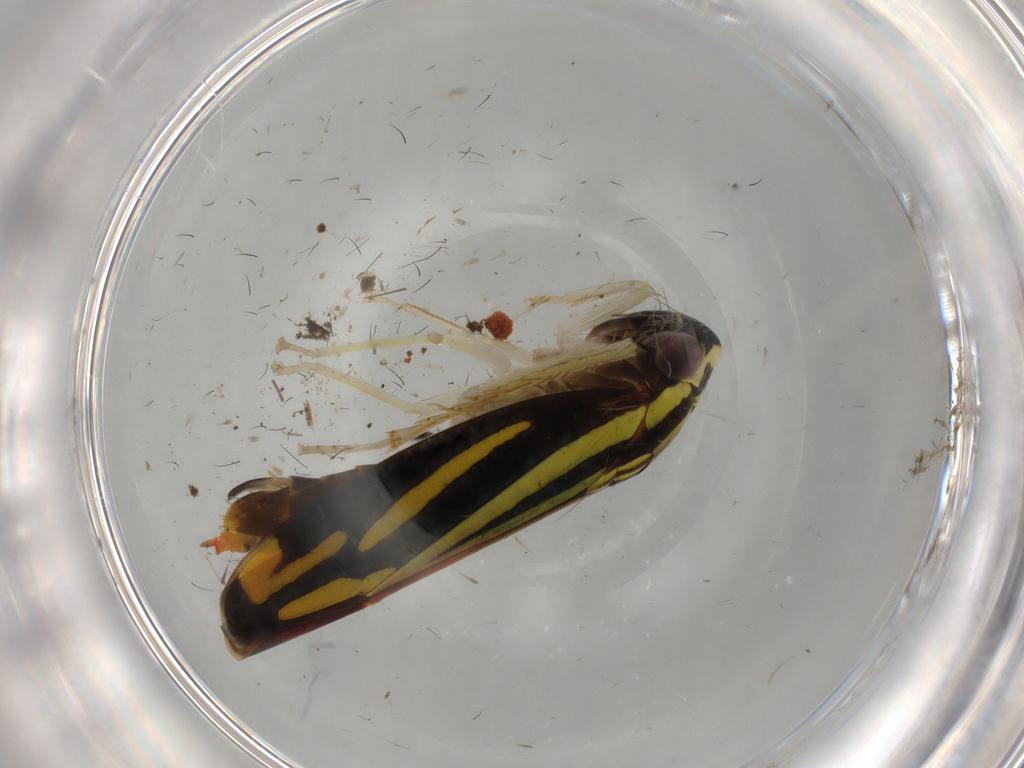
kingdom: Animalia
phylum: Arthropoda
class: Insecta
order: Hemiptera
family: Cicadellidae
